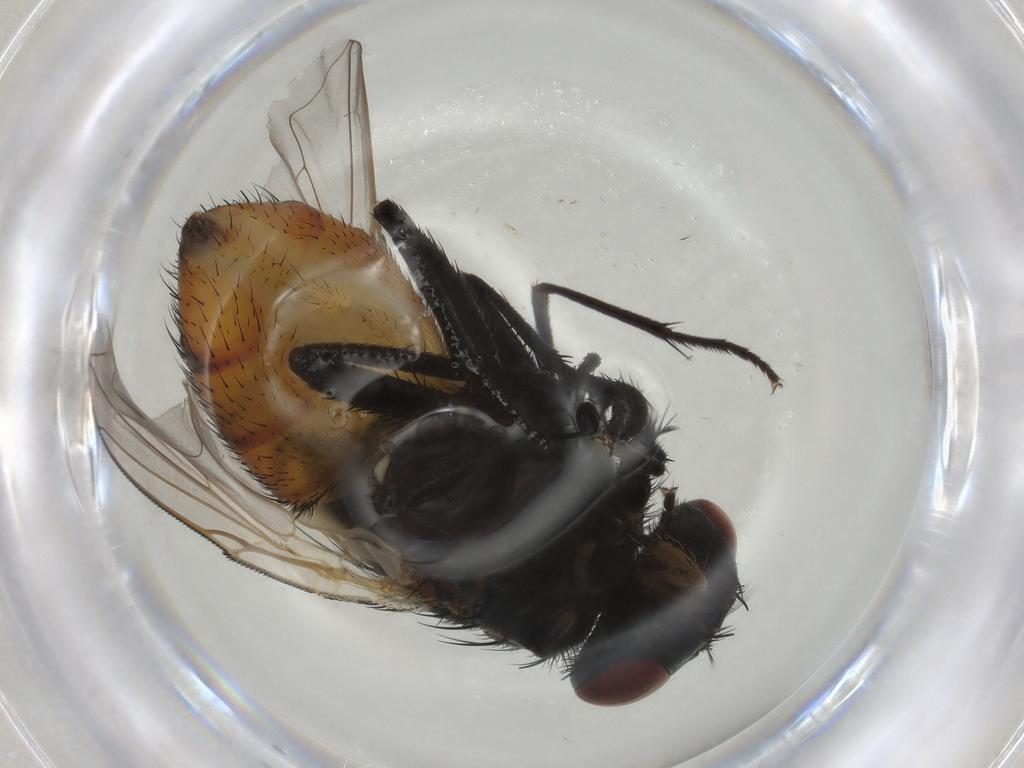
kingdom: Animalia
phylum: Arthropoda
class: Insecta
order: Diptera
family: Muscidae
